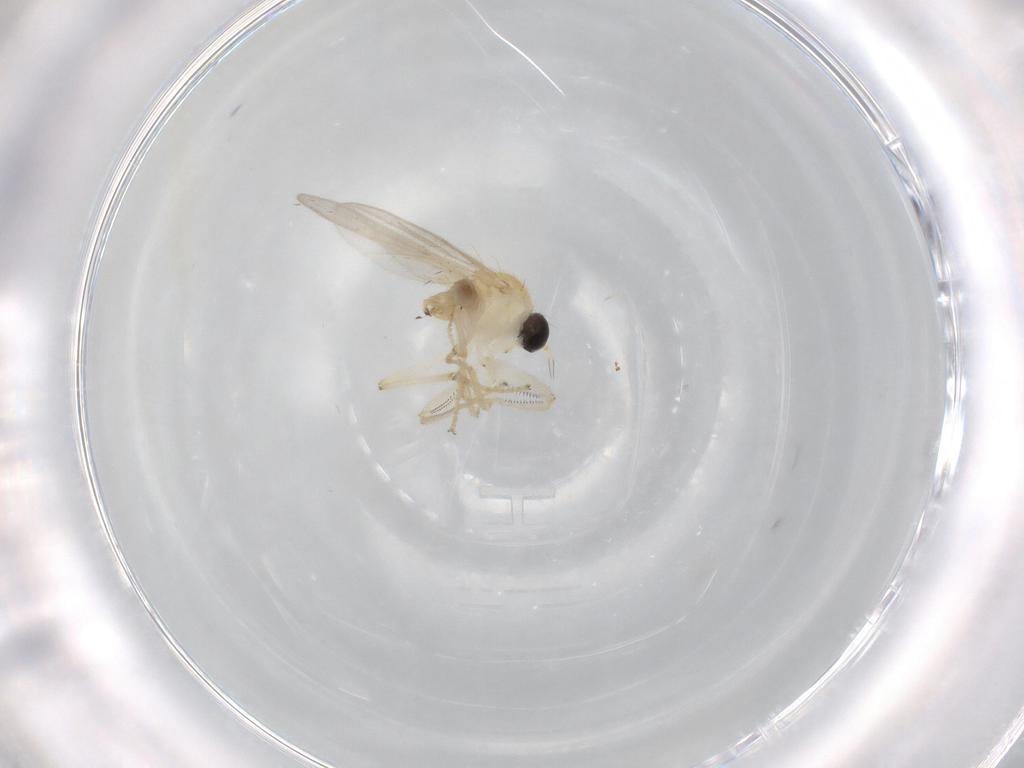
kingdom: Animalia
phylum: Arthropoda
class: Insecta
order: Diptera
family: Hybotidae
